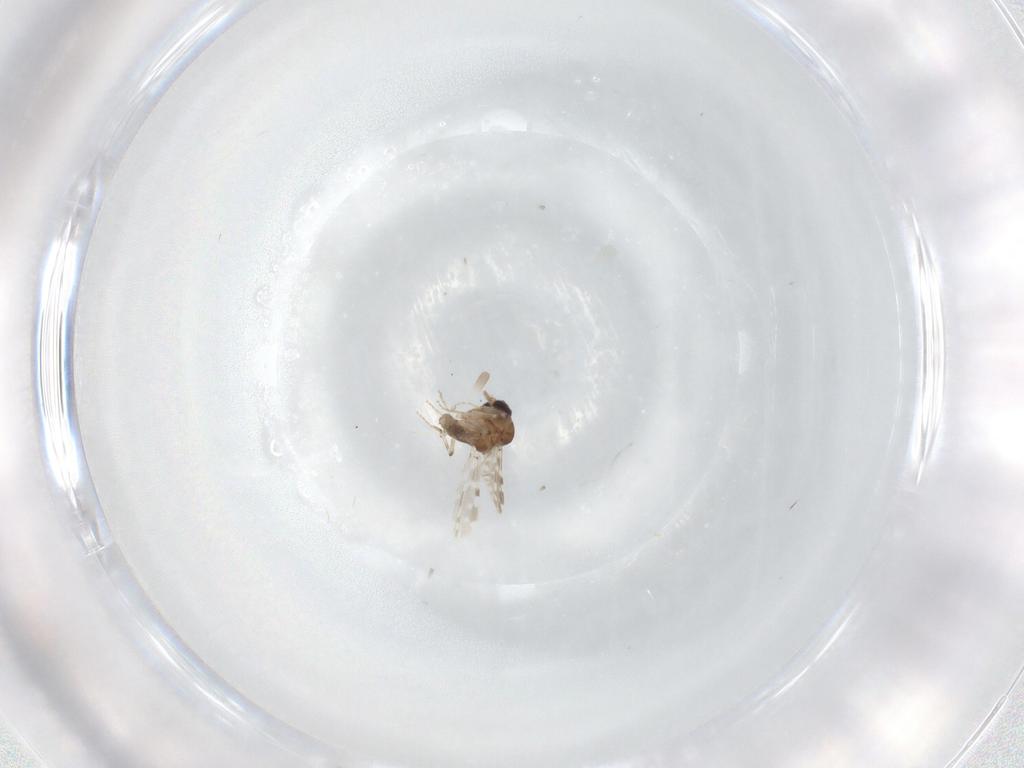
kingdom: Animalia
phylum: Arthropoda
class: Insecta
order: Diptera
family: Ceratopogonidae
